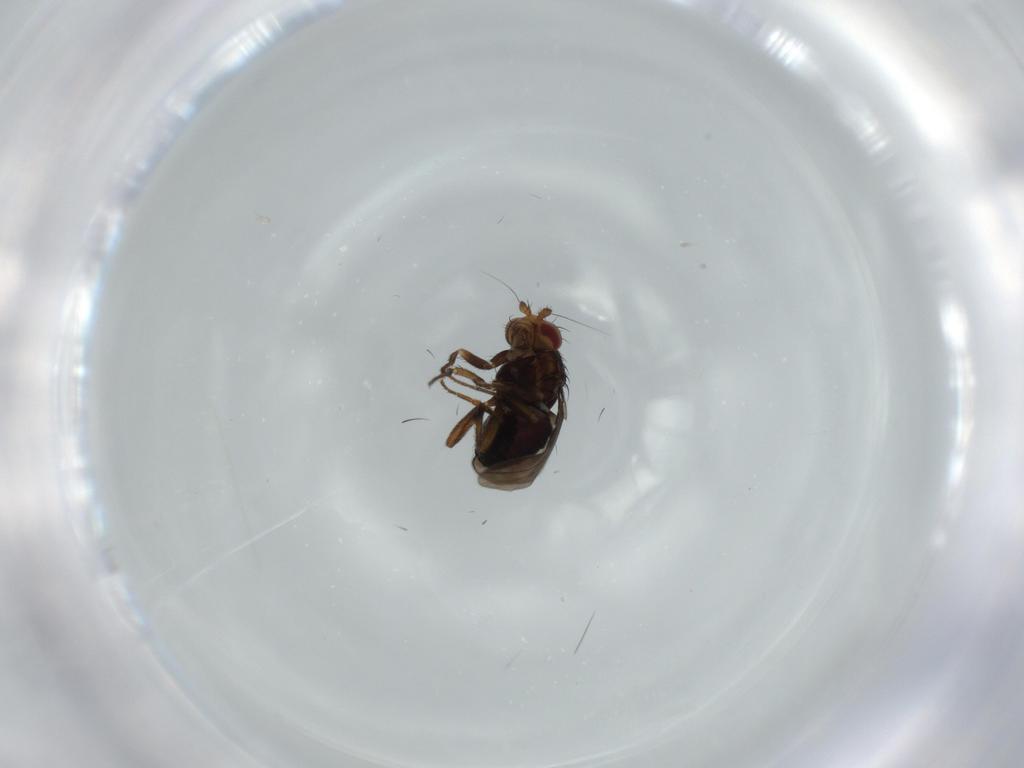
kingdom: Animalia
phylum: Arthropoda
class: Insecta
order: Diptera
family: Sphaeroceridae
